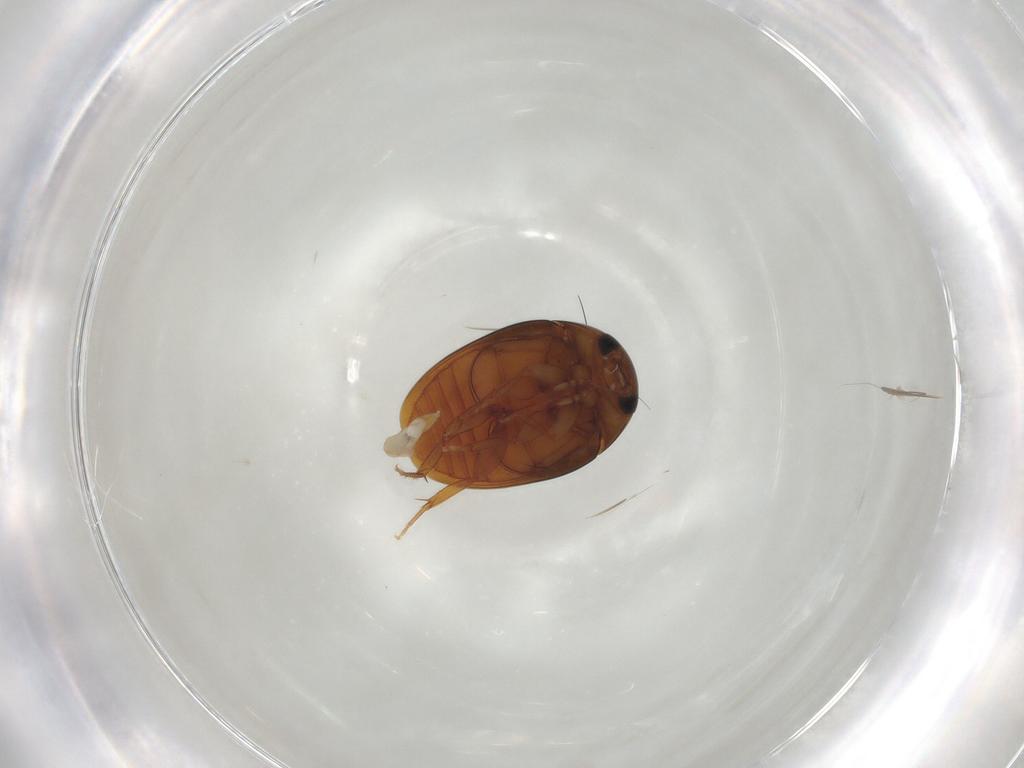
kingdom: Animalia
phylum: Arthropoda
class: Insecta
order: Coleoptera
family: Phalacridae
